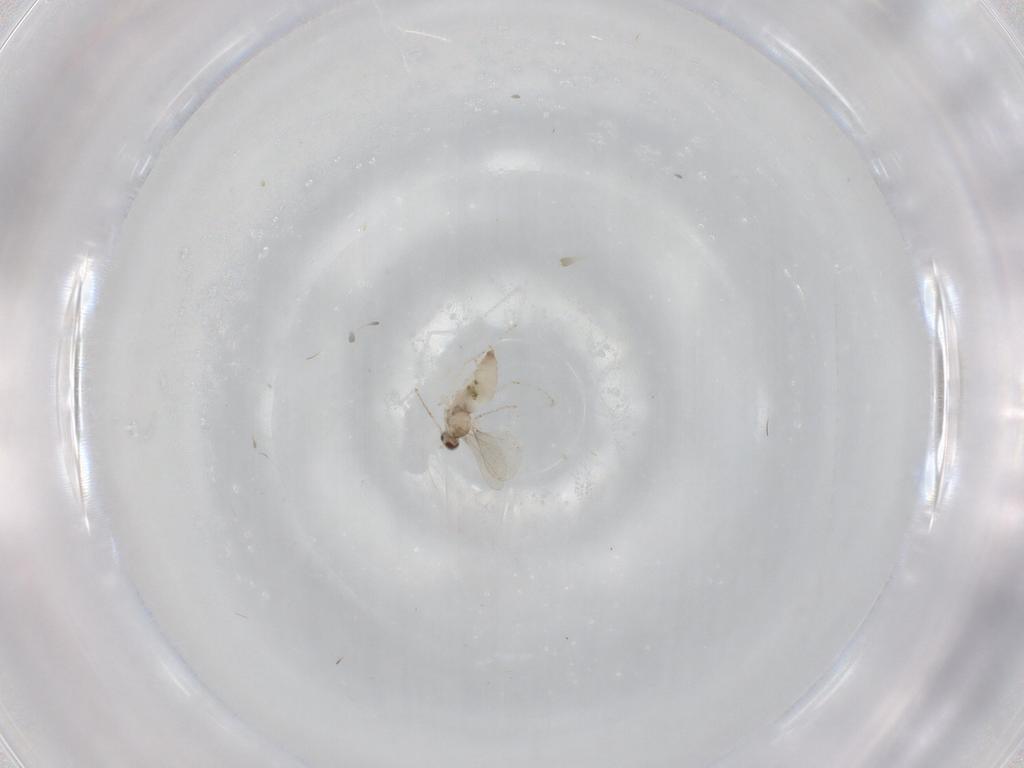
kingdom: Animalia
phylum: Arthropoda
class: Insecta
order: Diptera
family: Cecidomyiidae
